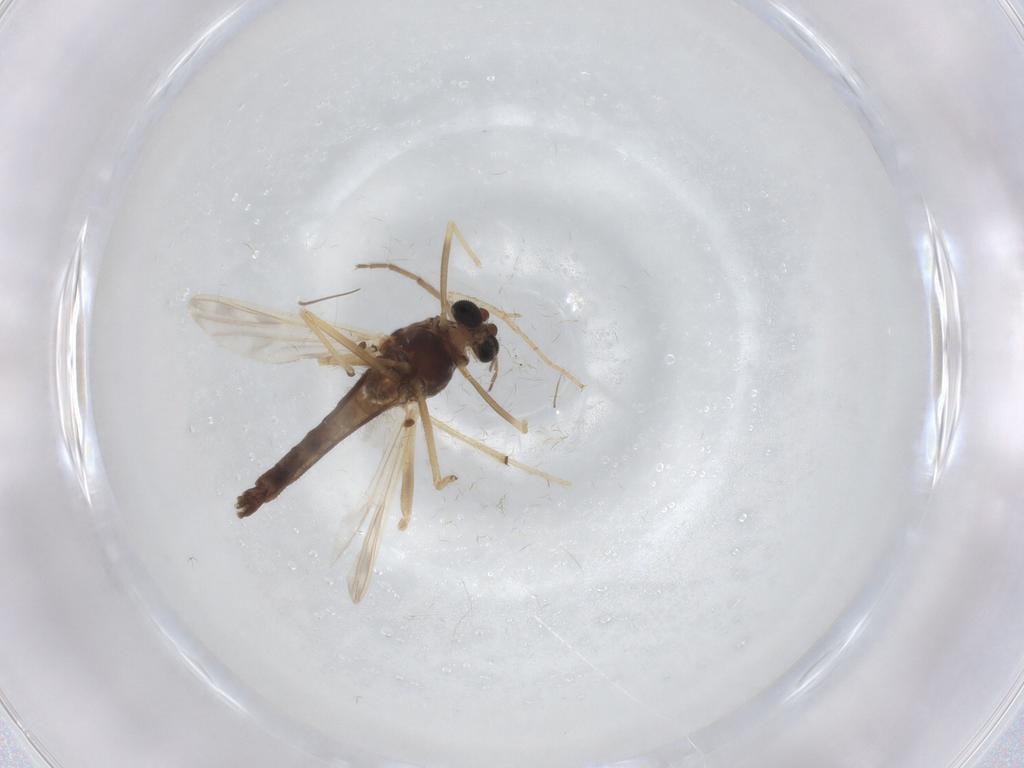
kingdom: Animalia
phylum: Arthropoda
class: Insecta
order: Diptera
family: Chironomidae
